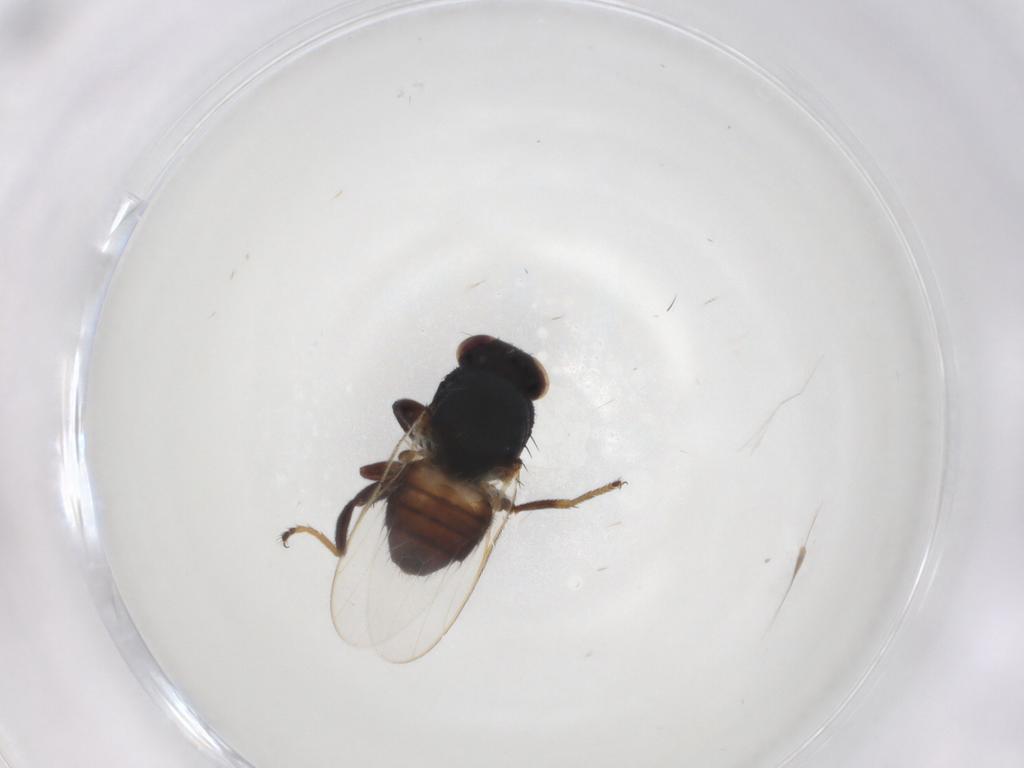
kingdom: Animalia
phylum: Arthropoda
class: Insecta
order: Diptera
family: Chloropidae
